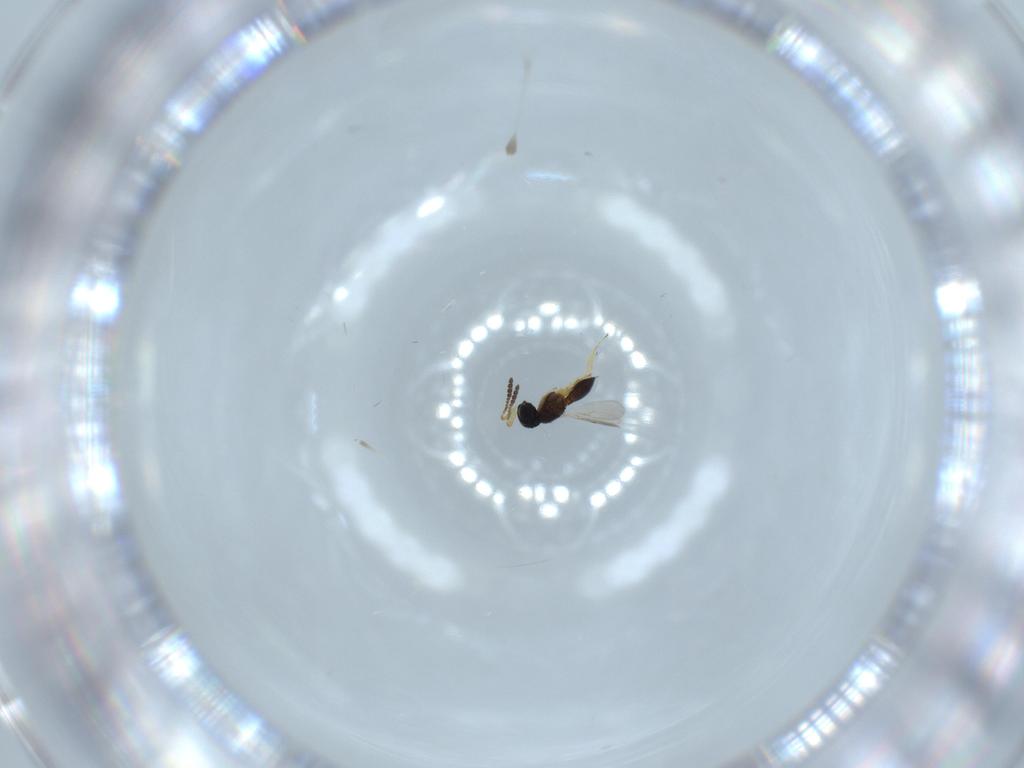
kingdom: Animalia
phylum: Arthropoda
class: Insecta
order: Hymenoptera
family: Scelionidae
